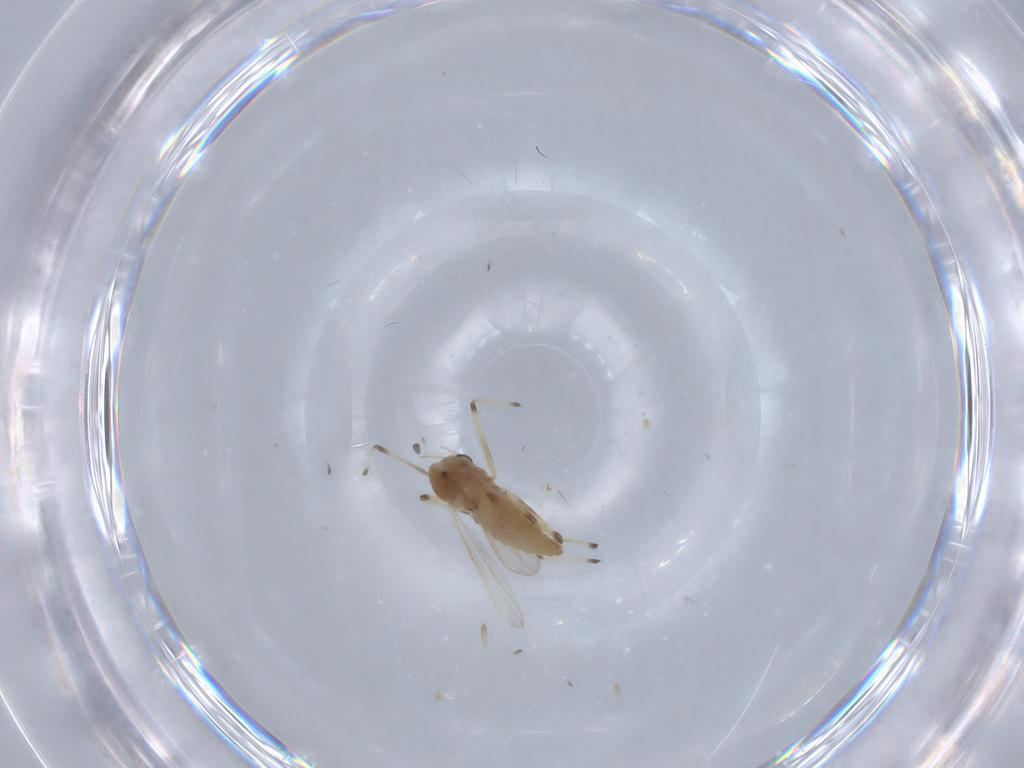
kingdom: Animalia
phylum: Arthropoda
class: Insecta
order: Diptera
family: Chironomidae
